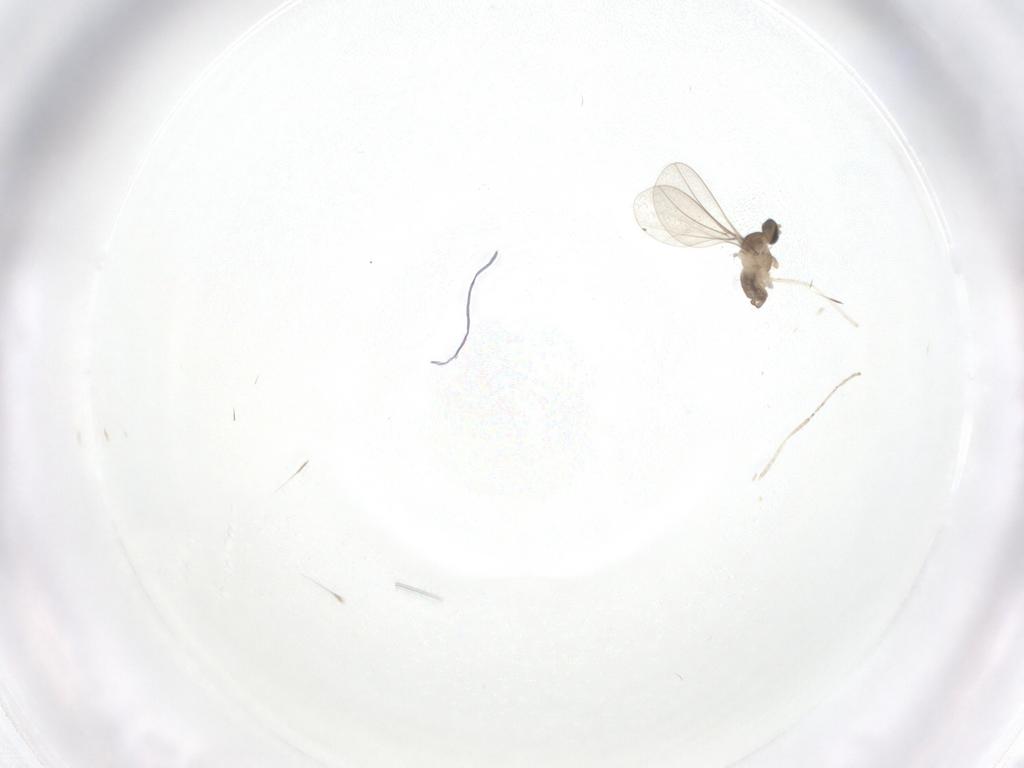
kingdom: Animalia
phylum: Arthropoda
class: Insecta
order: Diptera
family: Cecidomyiidae
